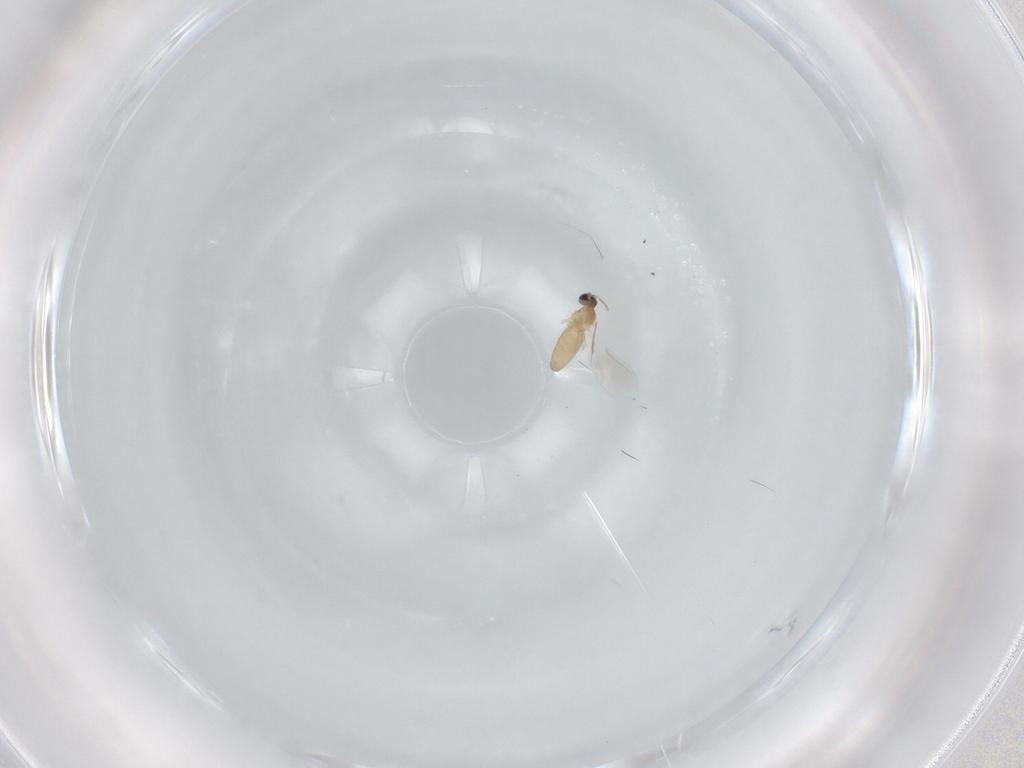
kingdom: Animalia
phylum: Arthropoda
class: Insecta
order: Diptera
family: Cecidomyiidae
